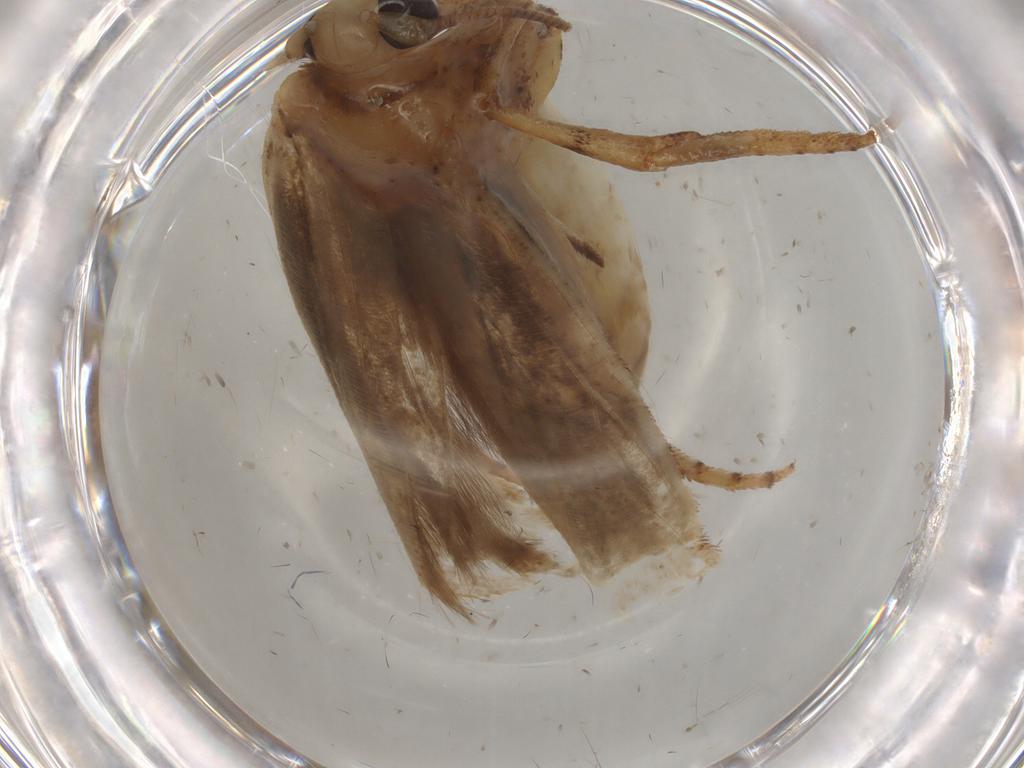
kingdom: Animalia
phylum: Arthropoda
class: Insecta
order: Lepidoptera
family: Yponomeutidae
